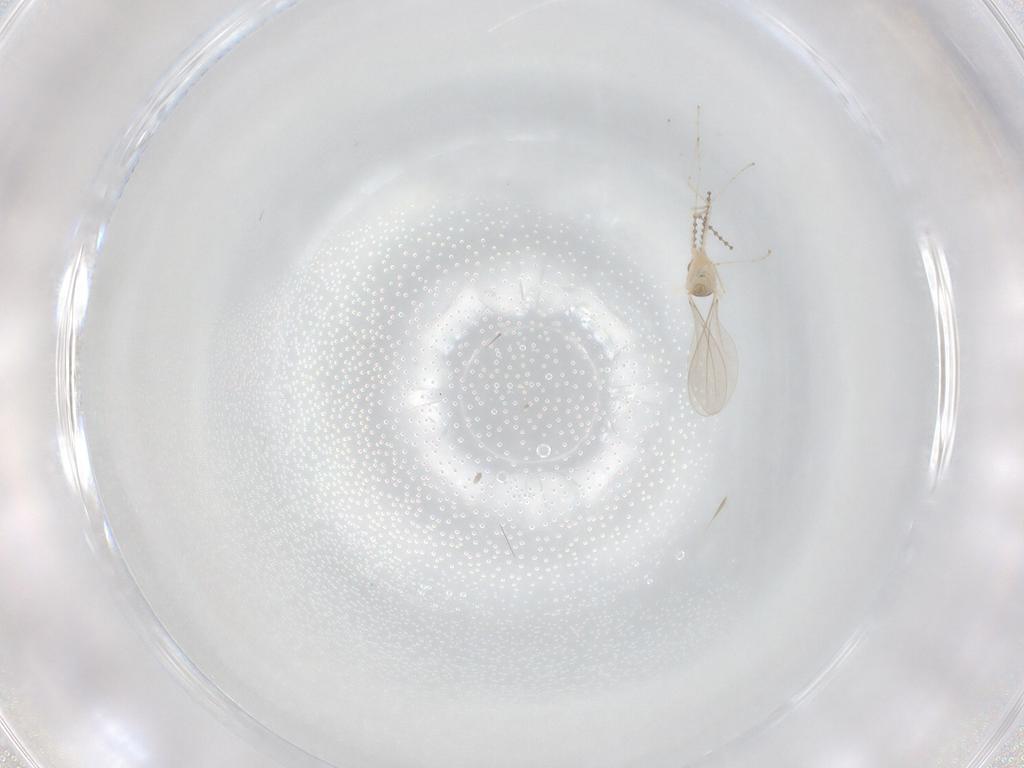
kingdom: Animalia
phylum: Arthropoda
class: Insecta
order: Diptera
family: Cecidomyiidae
